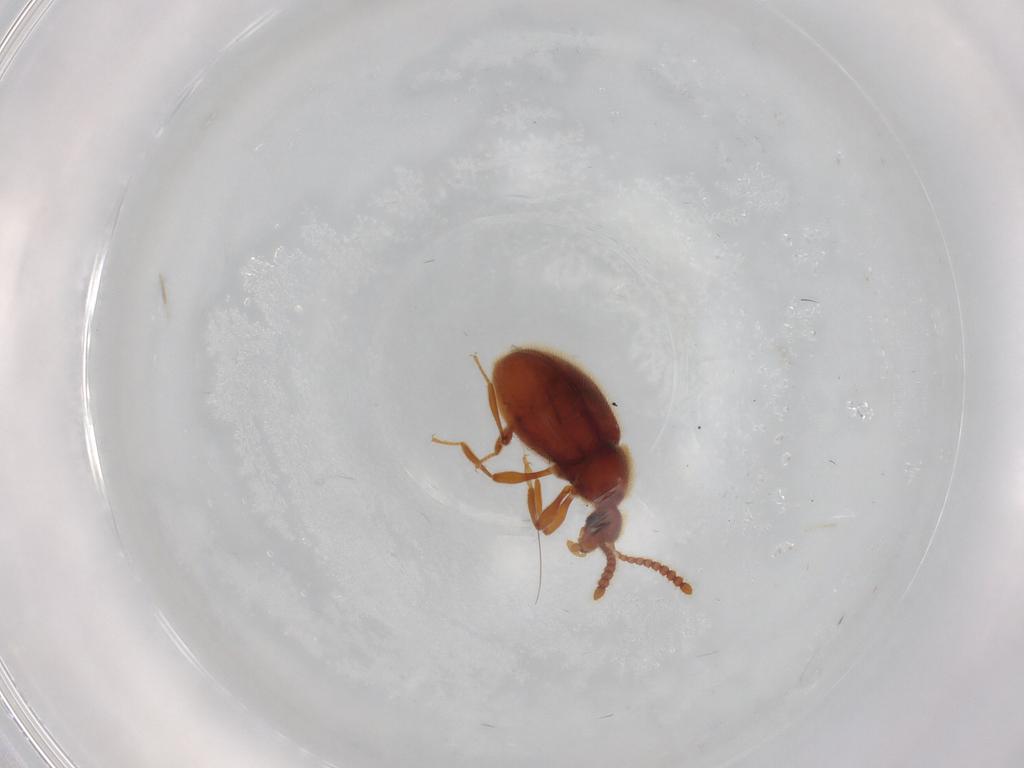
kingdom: Animalia
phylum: Arthropoda
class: Insecta
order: Coleoptera
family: Staphylinidae
